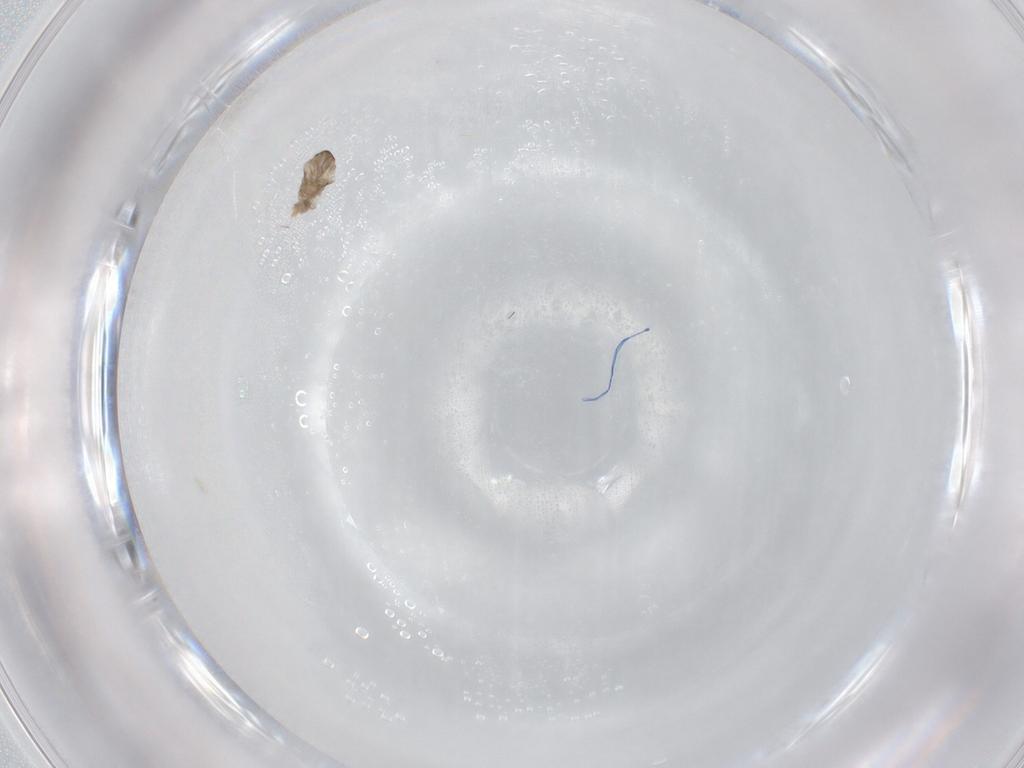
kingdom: Animalia
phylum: Arthropoda
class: Insecta
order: Diptera
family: Cecidomyiidae
